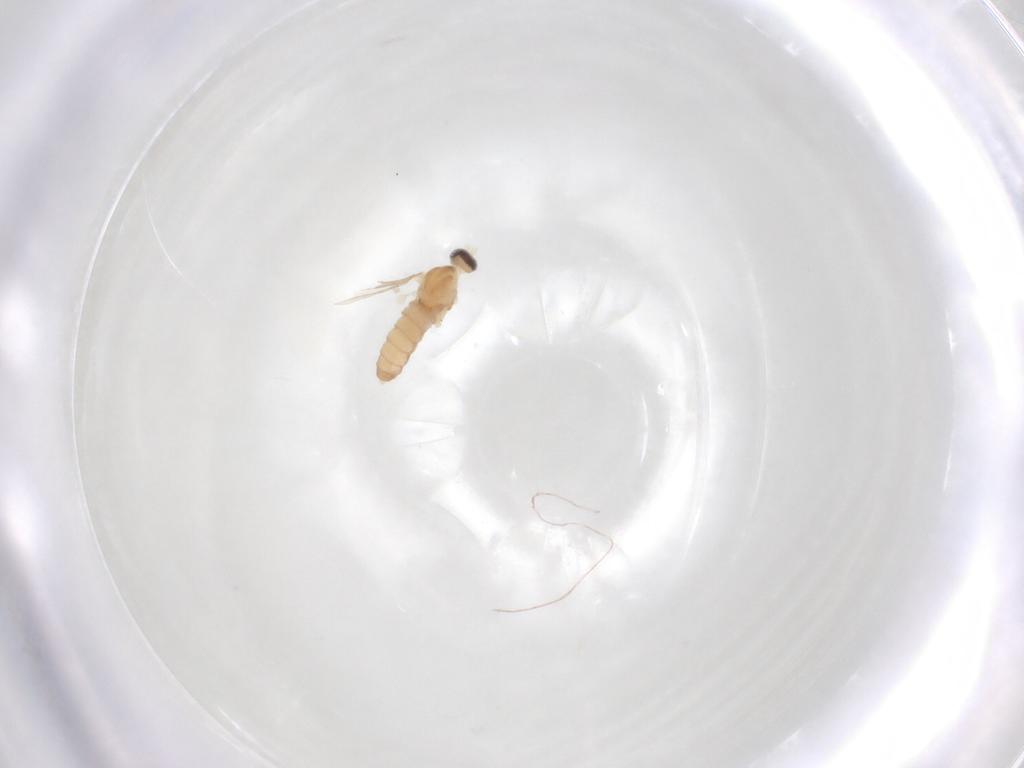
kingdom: Animalia
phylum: Arthropoda
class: Insecta
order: Diptera
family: Cecidomyiidae
